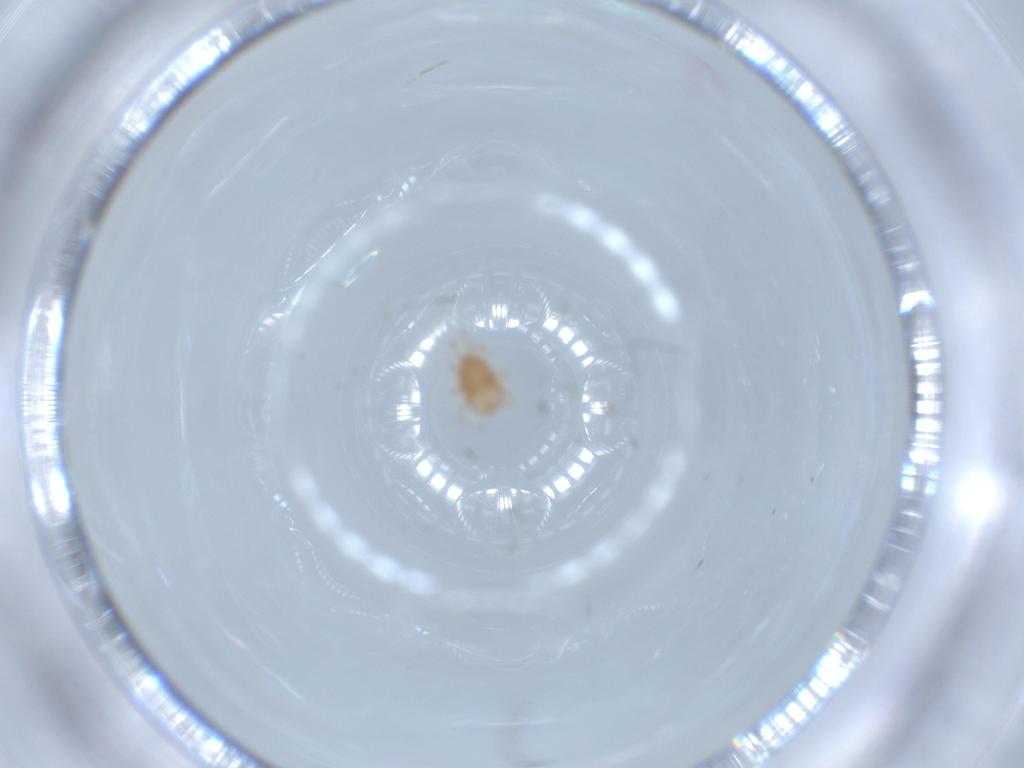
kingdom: Animalia
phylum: Arthropoda
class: Arachnida
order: Mesostigmata
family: Melicharidae
